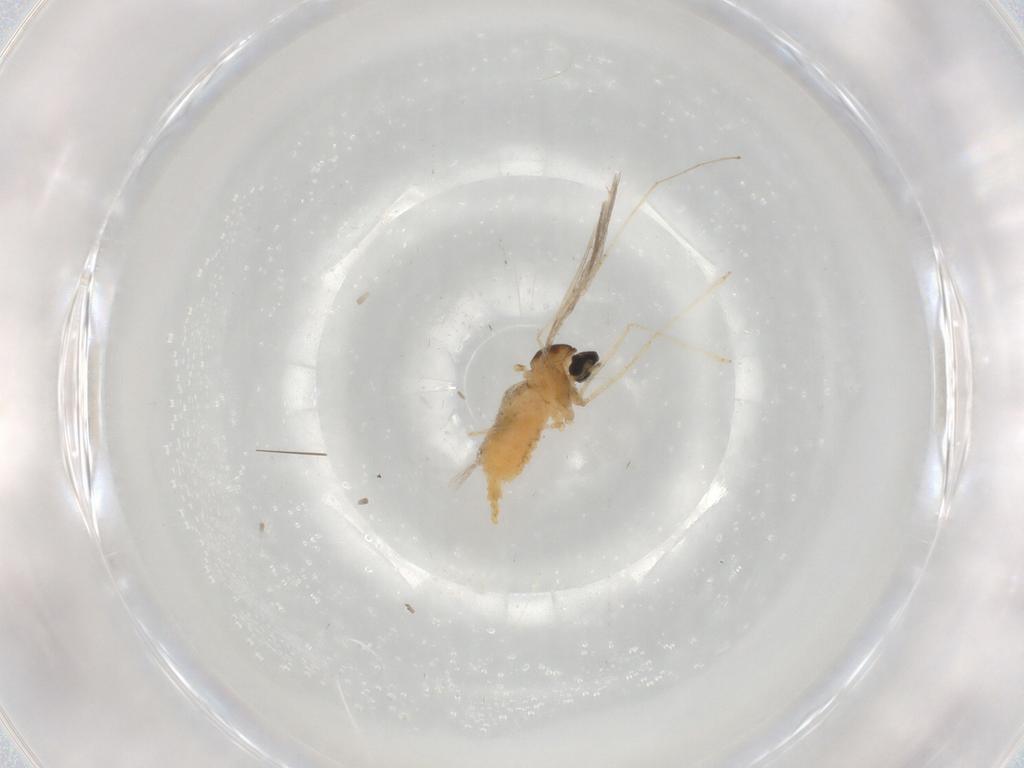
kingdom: Animalia
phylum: Arthropoda
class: Insecta
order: Diptera
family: Cecidomyiidae
